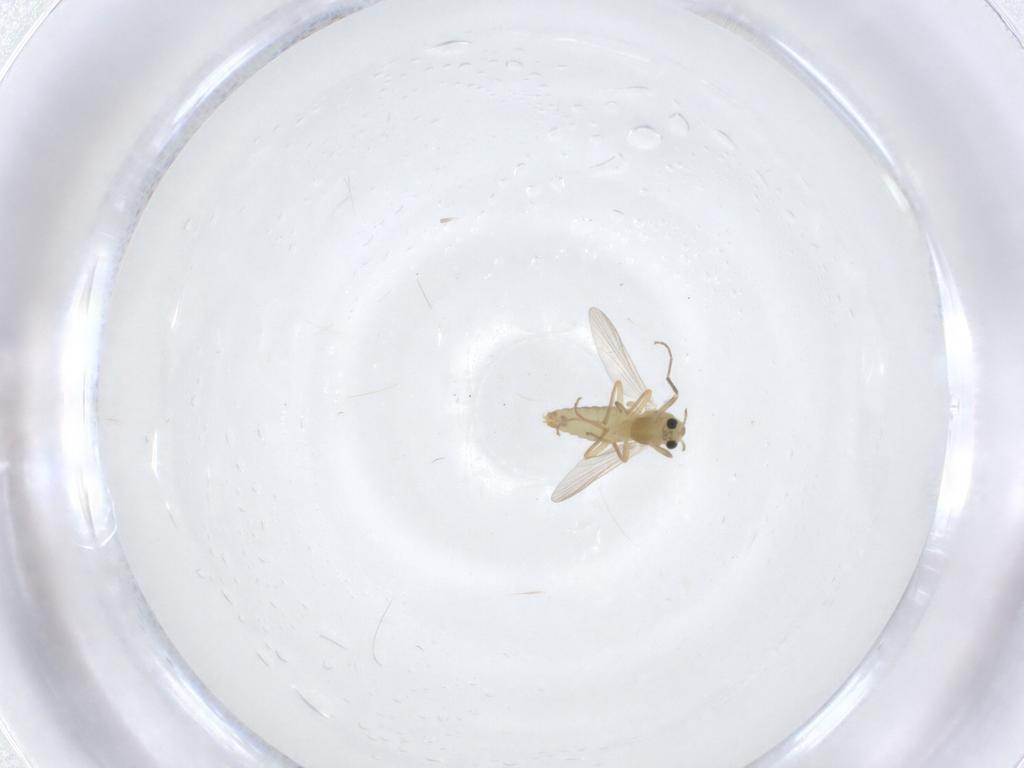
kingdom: Animalia
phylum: Arthropoda
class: Insecta
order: Diptera
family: Chironomidae
